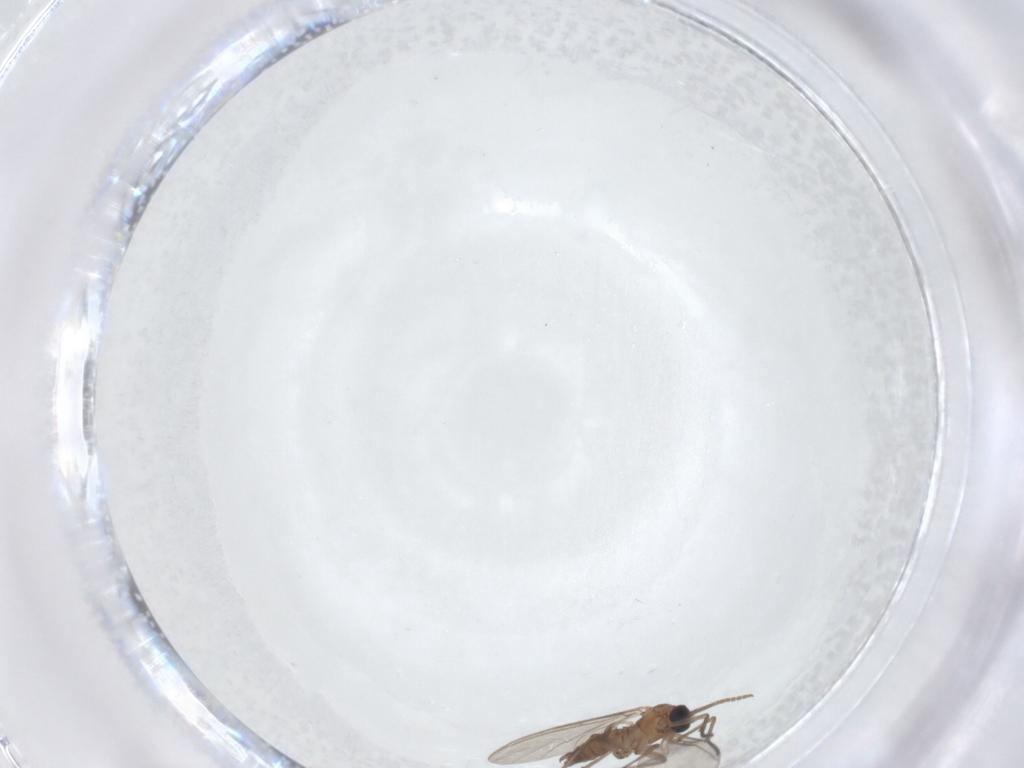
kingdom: Animalia
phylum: Arthropoda
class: Insecta
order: Diptera
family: Sciaridae
